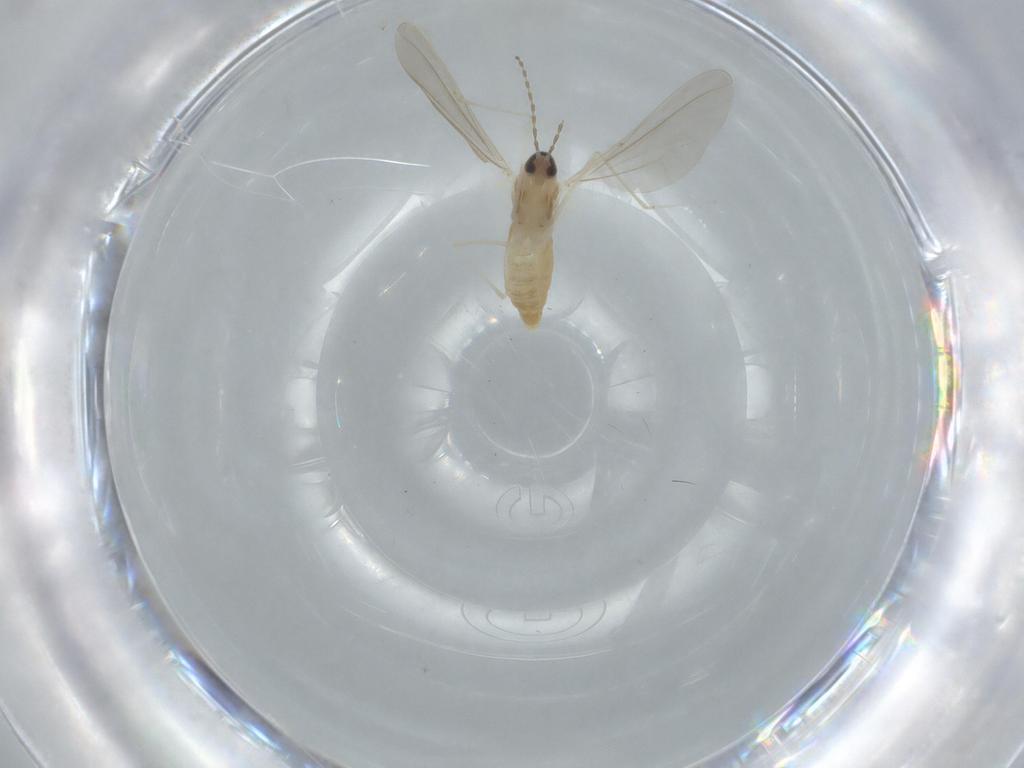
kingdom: Animalia
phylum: Arthropoda
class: Insecta
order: Diptera
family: Cecidomyiidae
